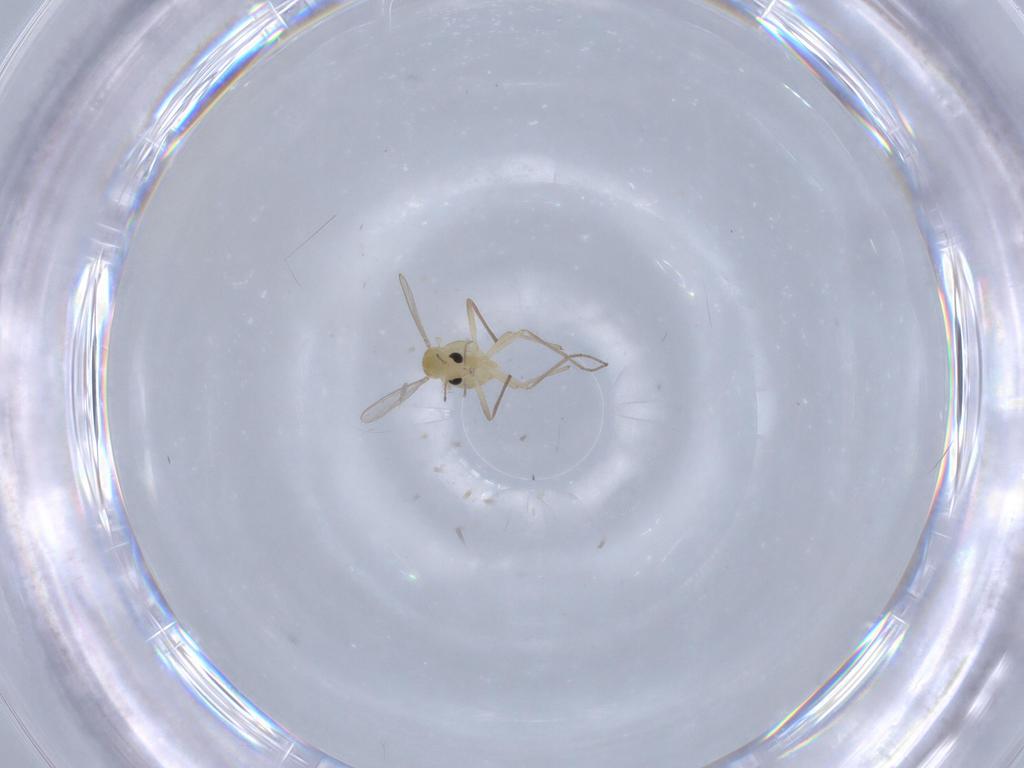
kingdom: Animalia
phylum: Arthropoda
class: Insecta
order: Diptera
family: Chironomidae
